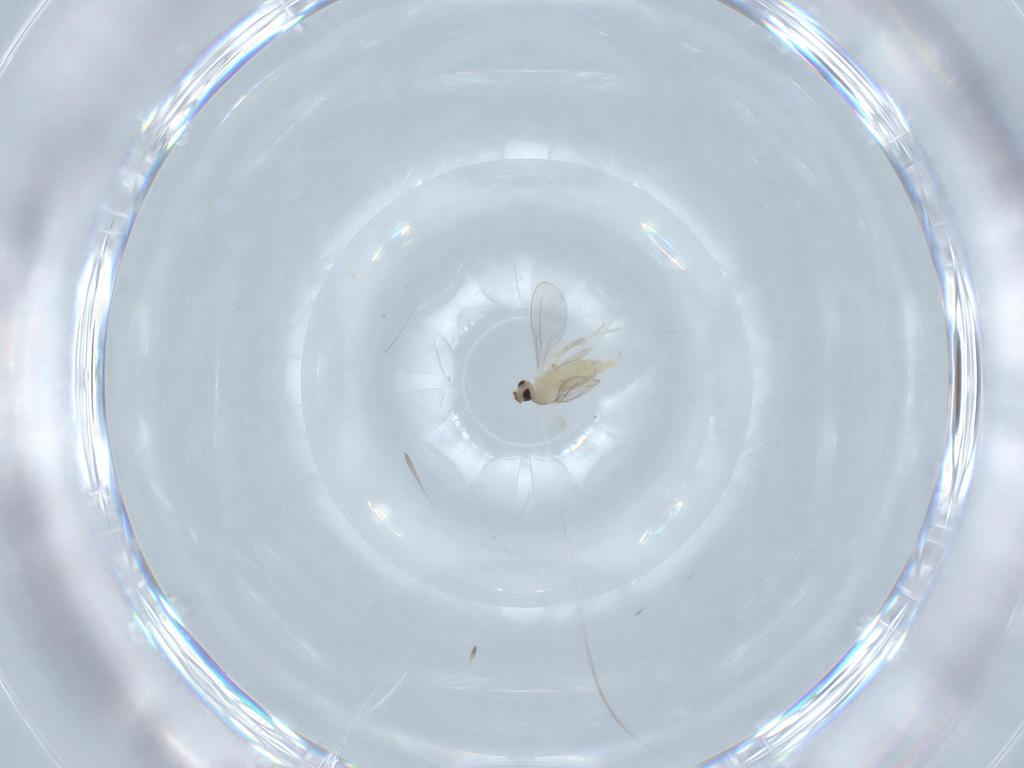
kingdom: Animalia
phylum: Arthropoda
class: Insecta
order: Diptera
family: Cecidomyiidae
